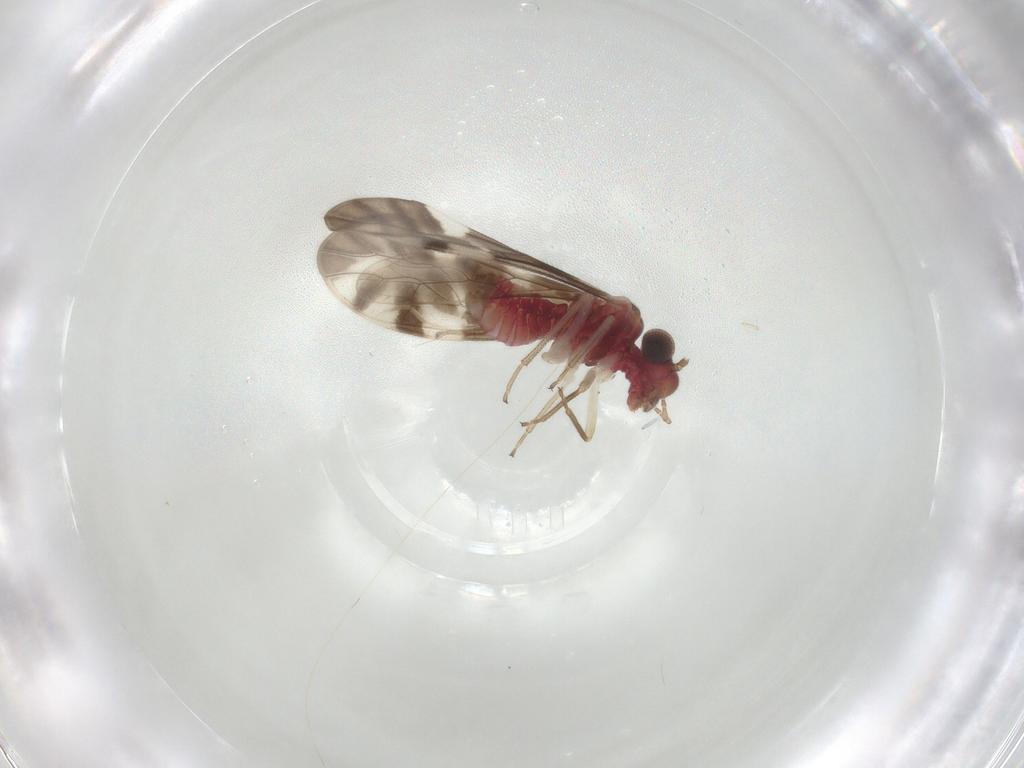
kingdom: Animalia
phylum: Arthropoda
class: Insecta
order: Psocodea
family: Caeciliusidae
